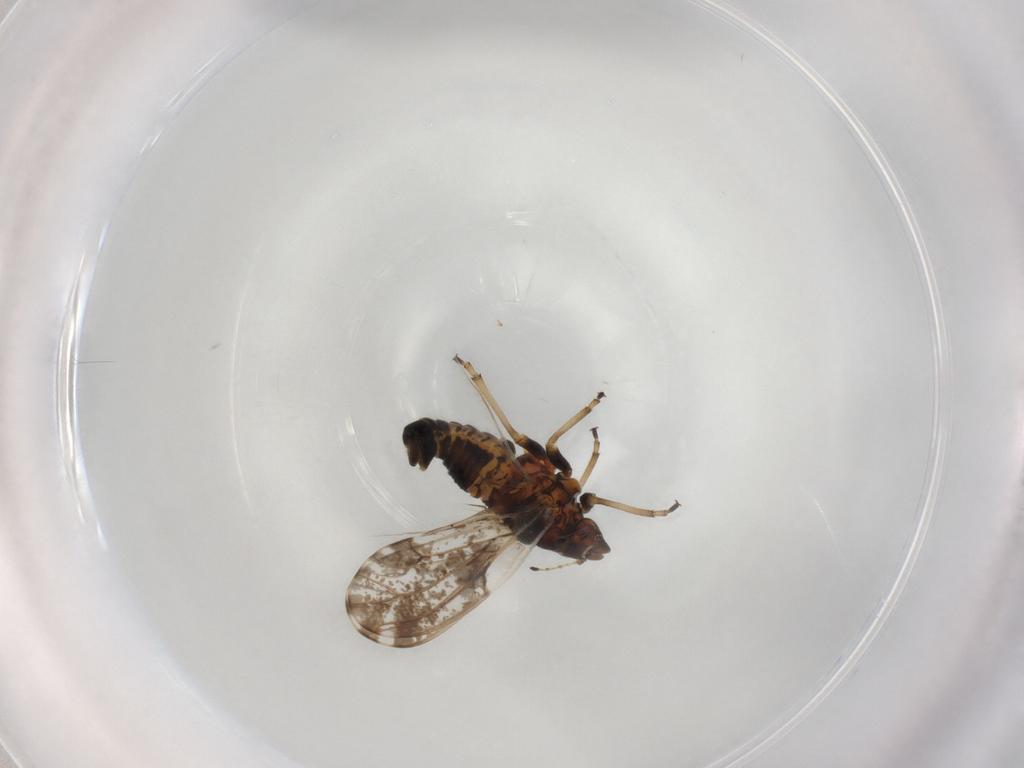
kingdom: Animalia
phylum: Arthropoda
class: Insecta
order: Hemiptera
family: Psylloidea_incertae_sedis
